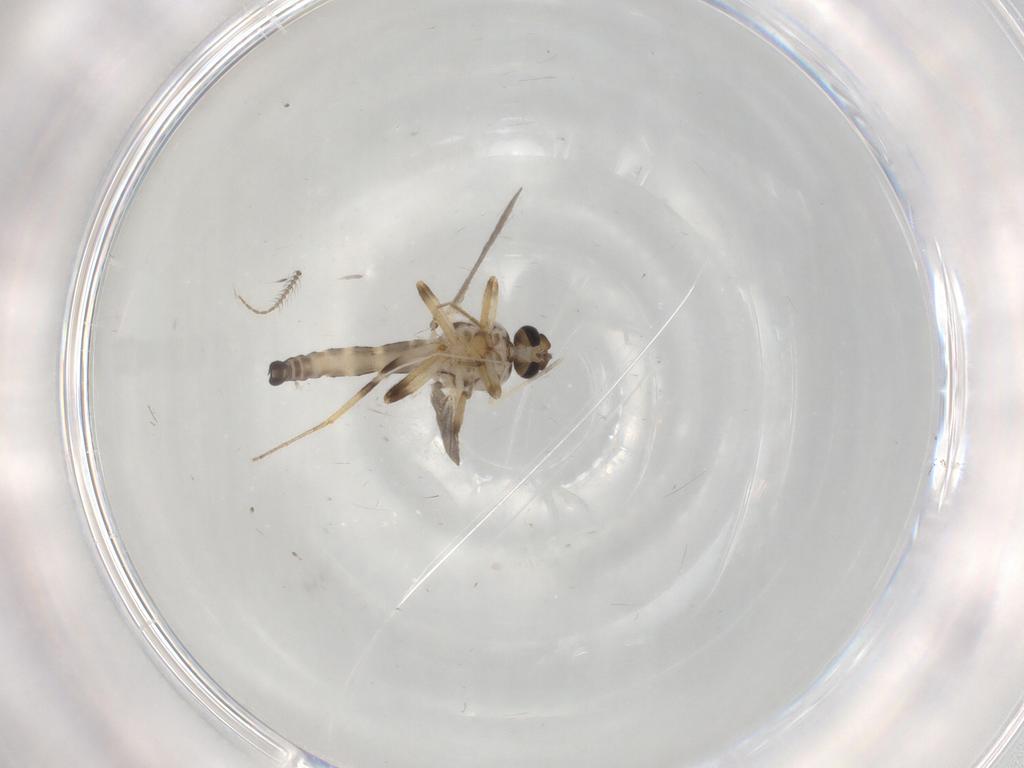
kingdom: Animalia
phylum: Arthropoda
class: Insecta
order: Diptera
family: Ceratopogonidae
